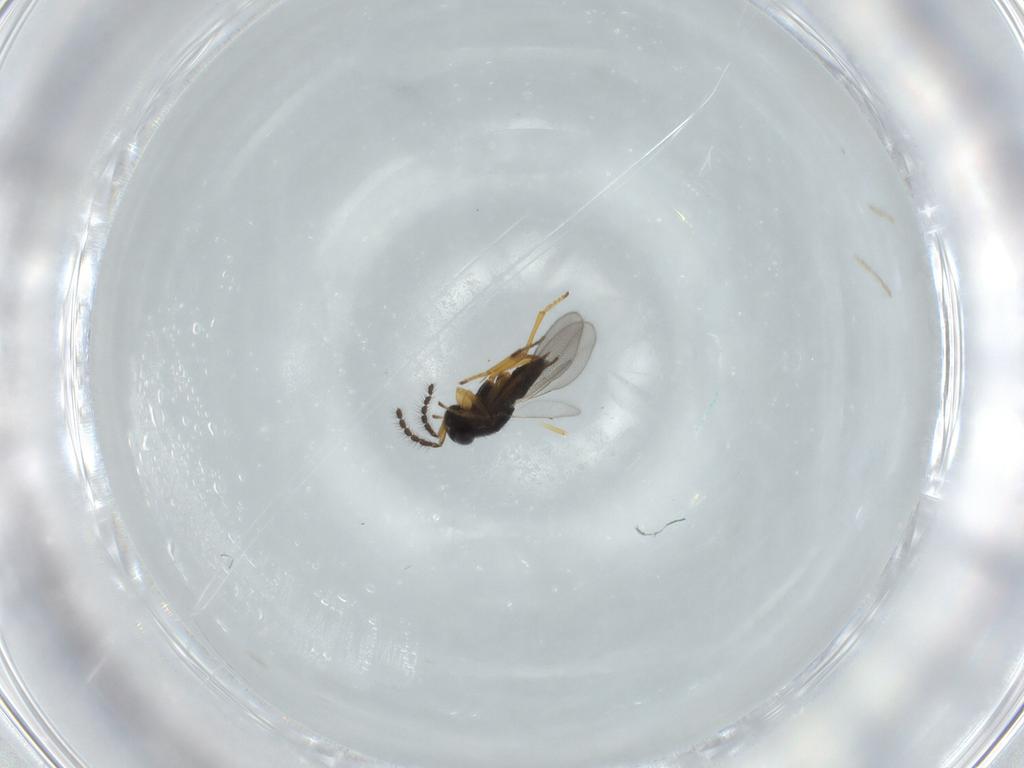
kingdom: Animalia
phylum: Arthropoda
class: Insecta
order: Hymenoptera
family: Encyrtidae
